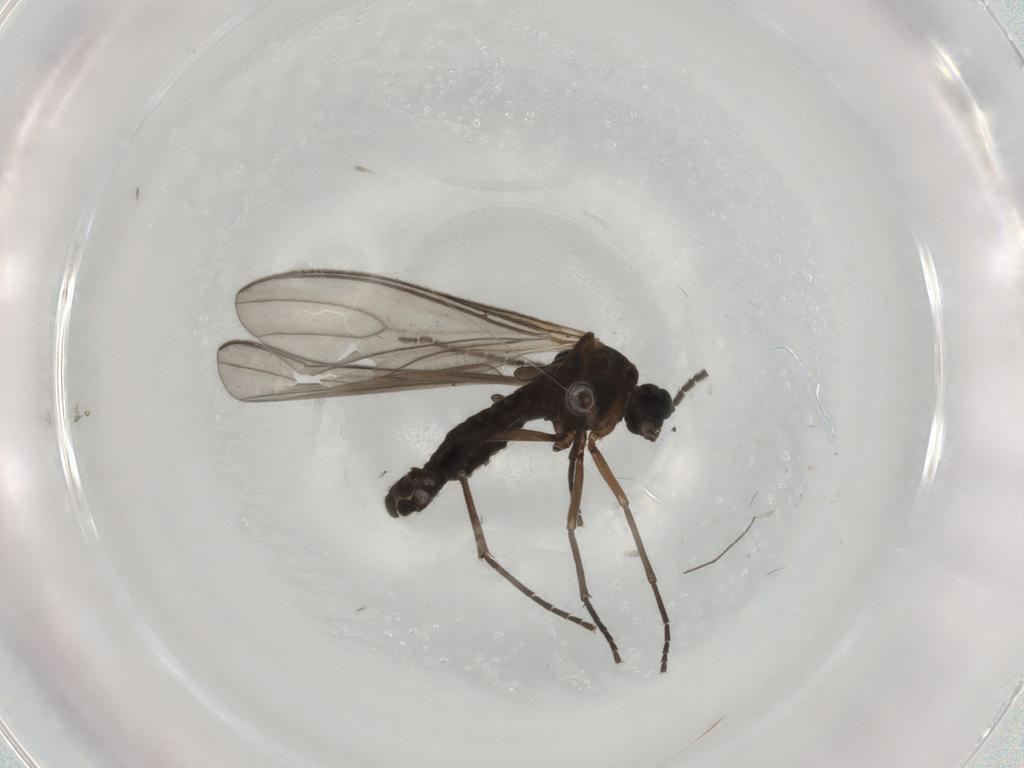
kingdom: Animalia
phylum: Arthropoda
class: Insecta
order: Diptera
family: Sciaridae
